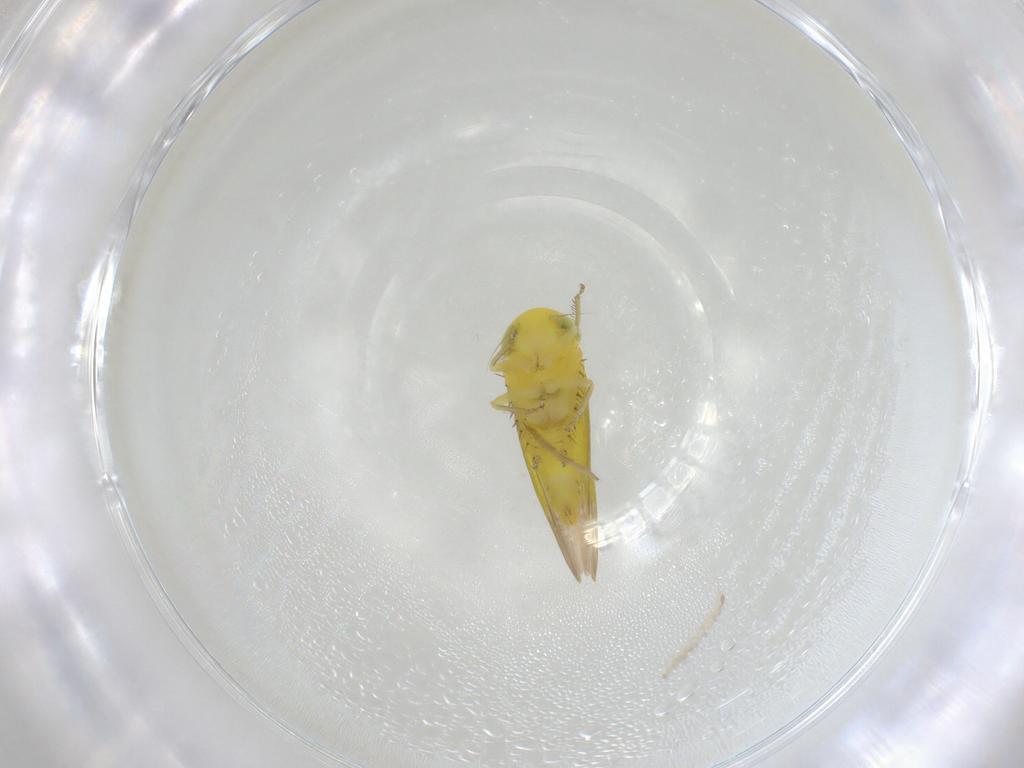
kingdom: Animalia
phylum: Arthropoda
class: Insecta
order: Hemiptera
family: Cicadellidae
